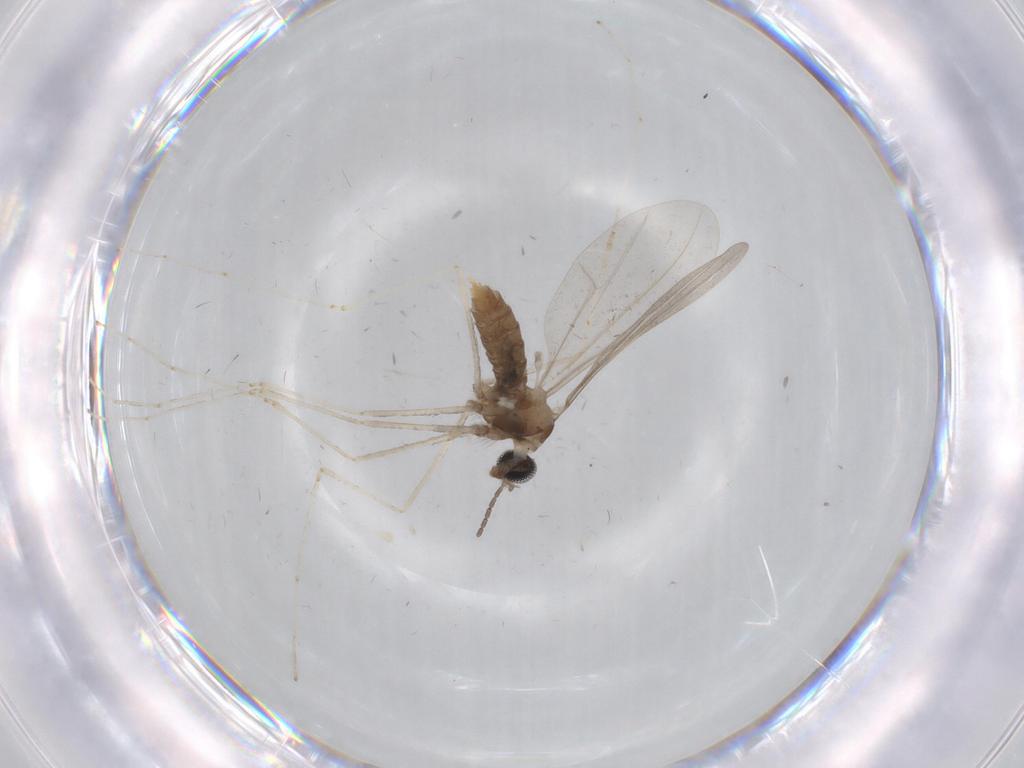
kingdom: Animalia
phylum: Arthropoda
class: Insecta
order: Diptera
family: Cecidomyiidae
